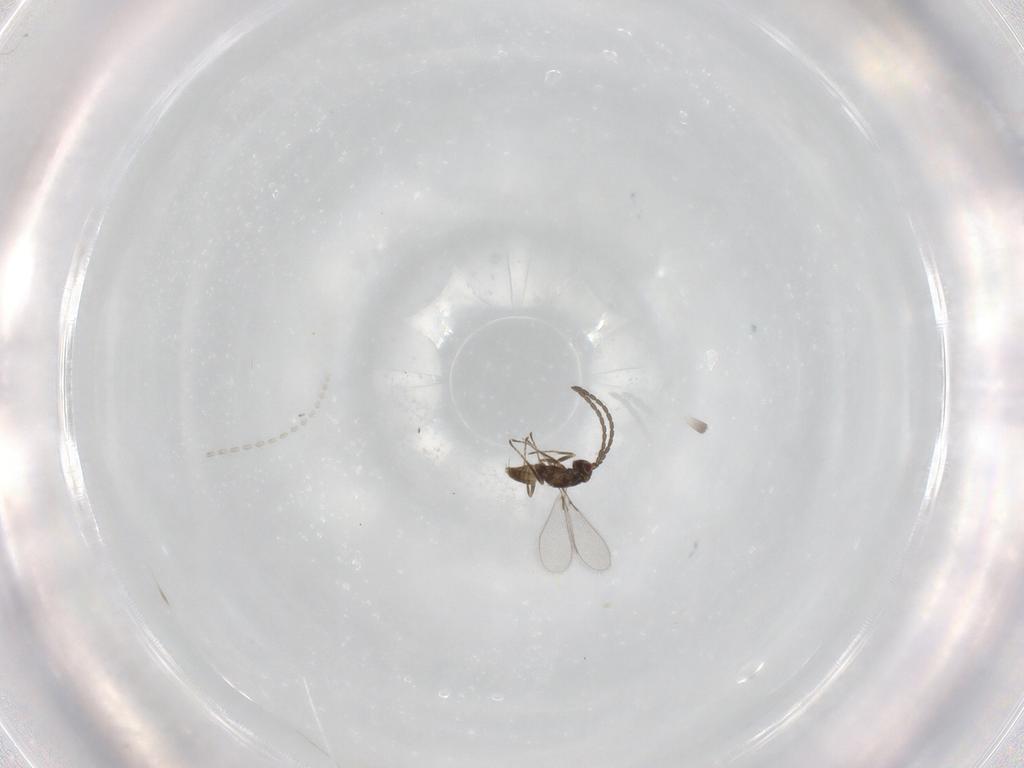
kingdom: Animalia
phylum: Arthropoda
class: Insecta
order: Hymenoptera
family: Mymaridae
